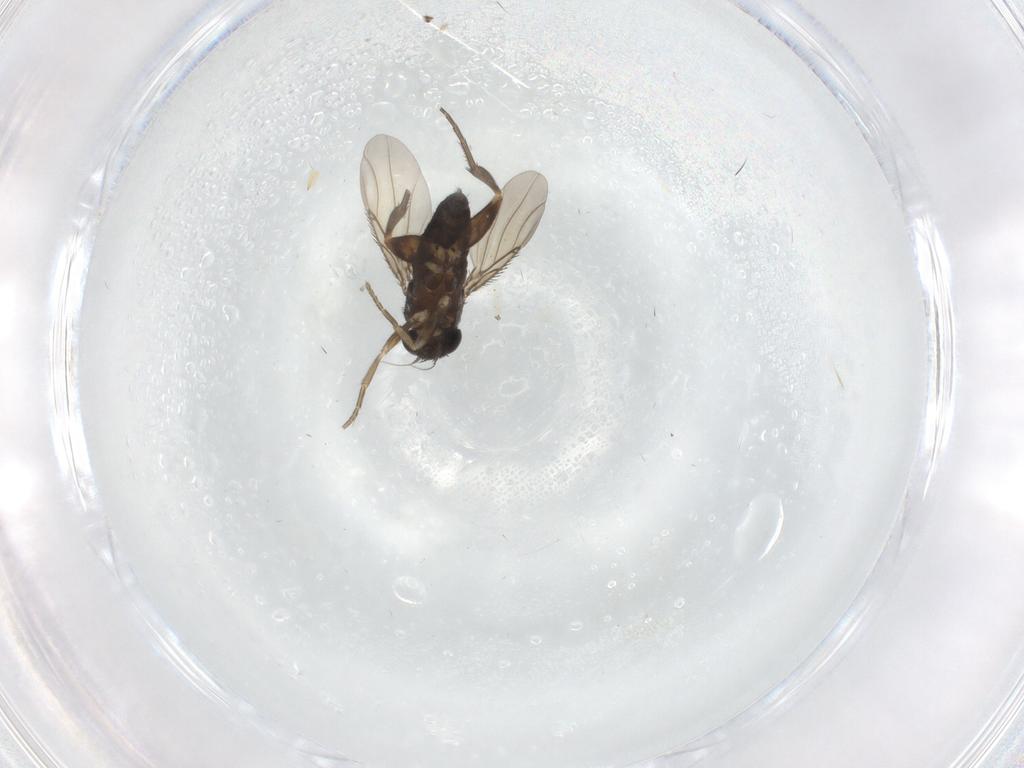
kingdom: Animalia
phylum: Arthropoda
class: Insecta
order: Diptera
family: Phoridae
